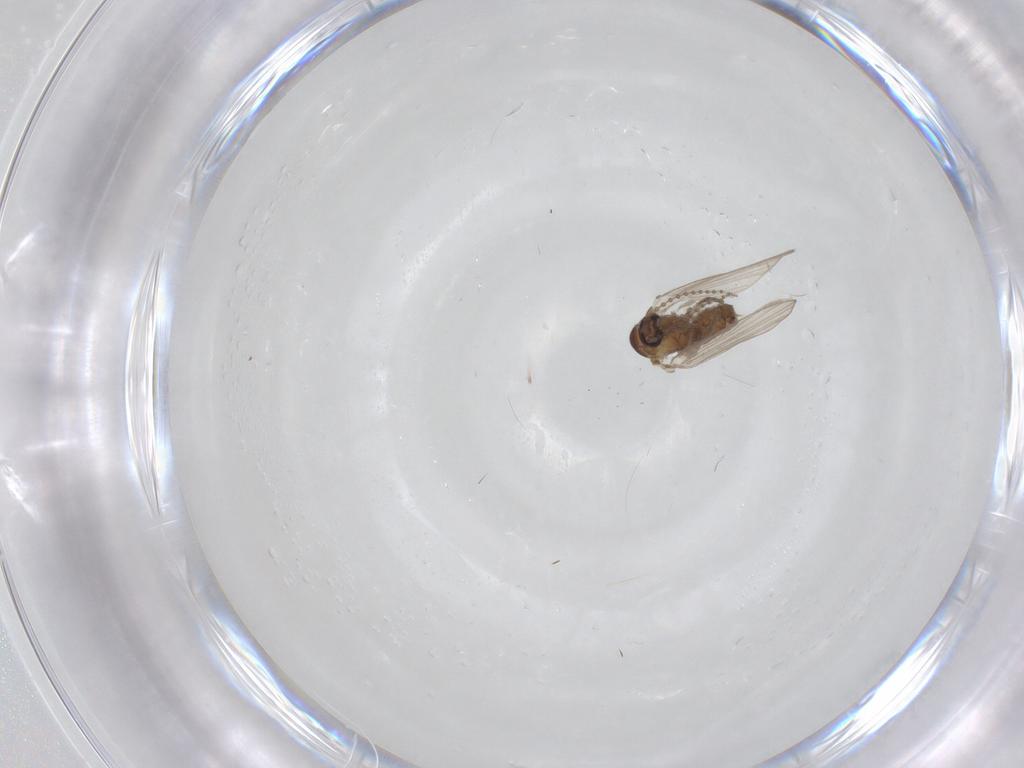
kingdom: Animalia
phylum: Arthropoda
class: Insecta
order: Diptera
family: Psychodidae
